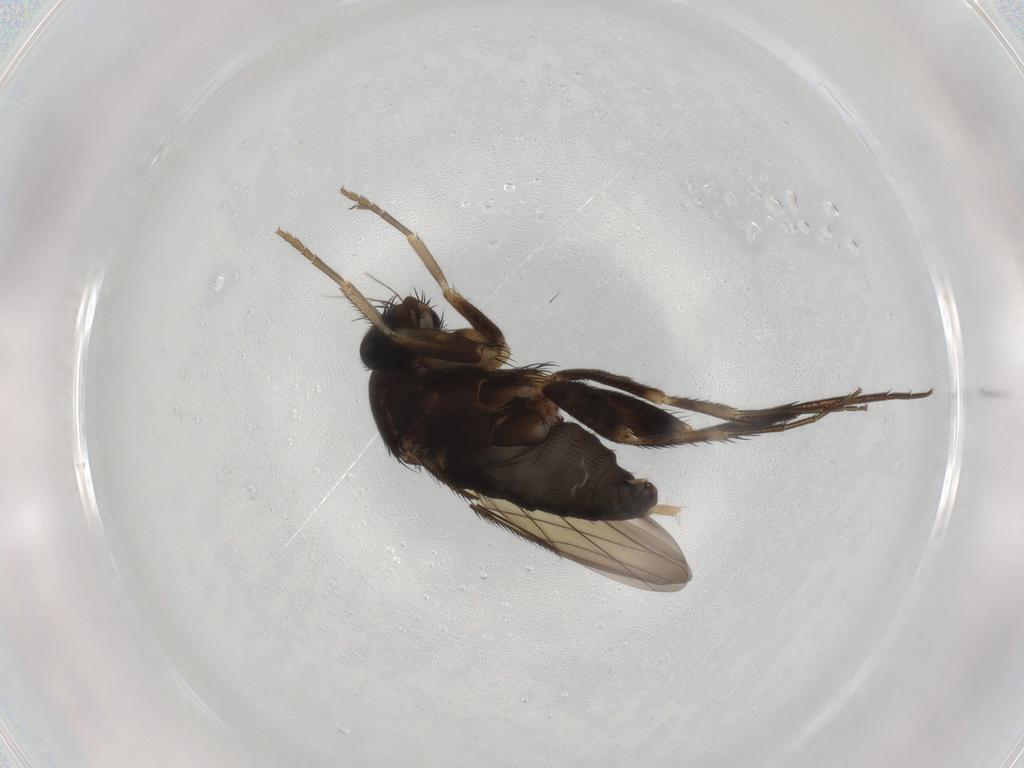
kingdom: Animalia
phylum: Arthropoda
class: Insecta
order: Diptera
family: Phoridae
